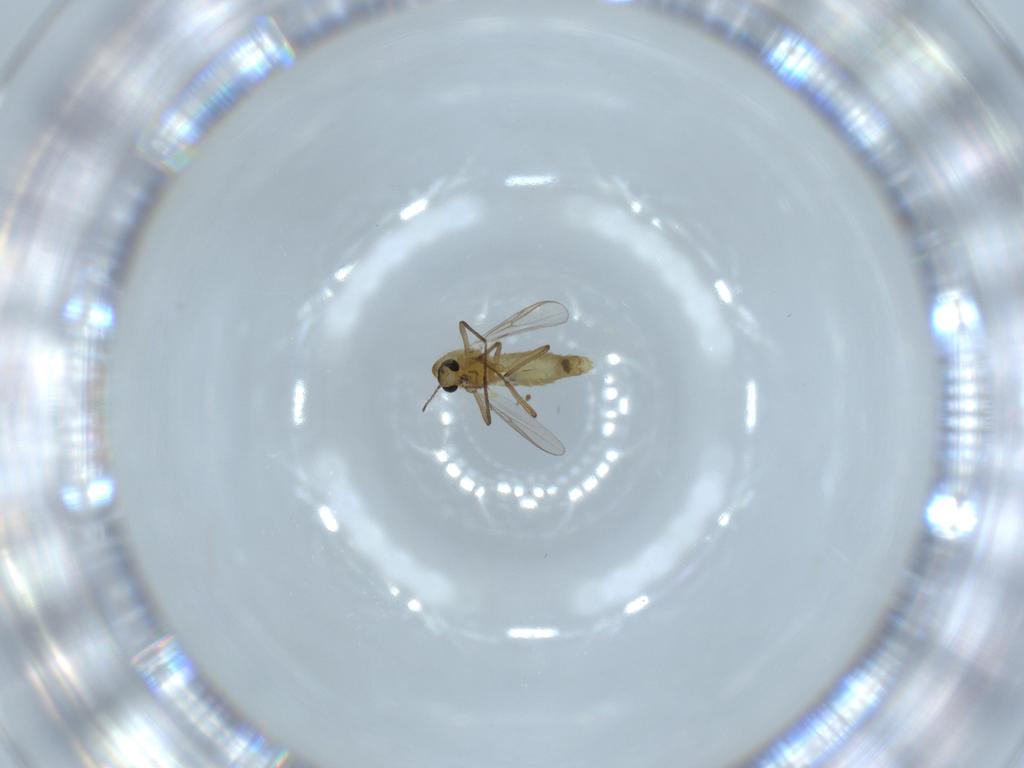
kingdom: Animalia
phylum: Arthropoda
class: Insecta
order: Diptera
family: Chironomidae
